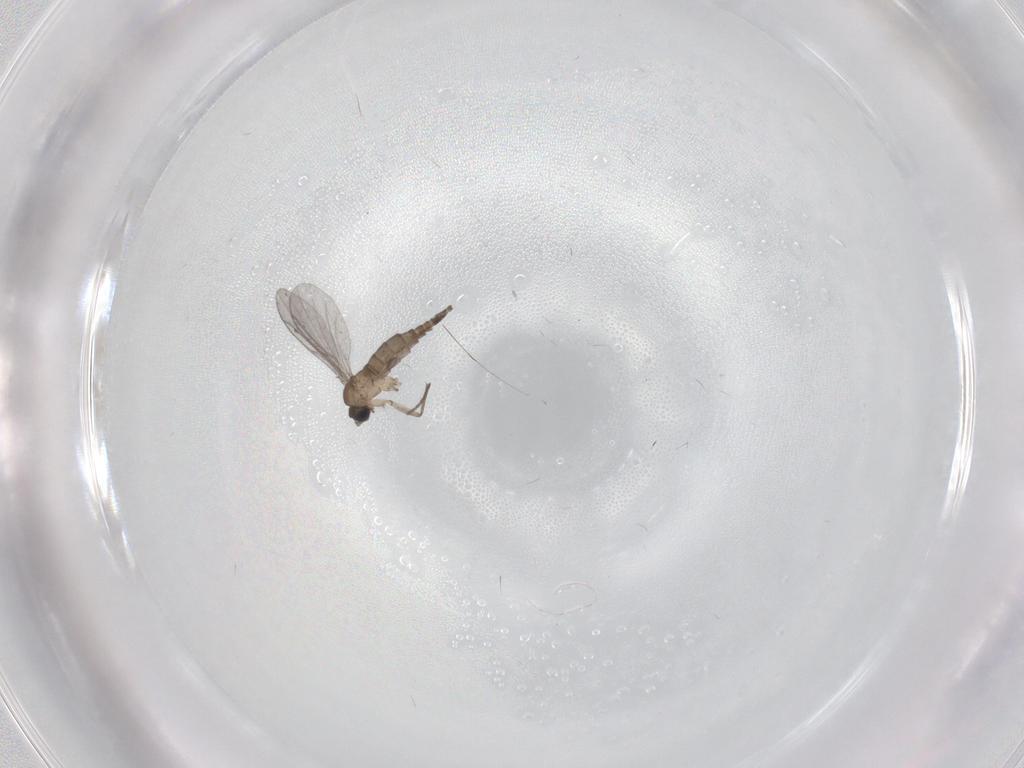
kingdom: Animalia
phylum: Arthropoda
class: Insecta
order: Diptera
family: Sciaridae
